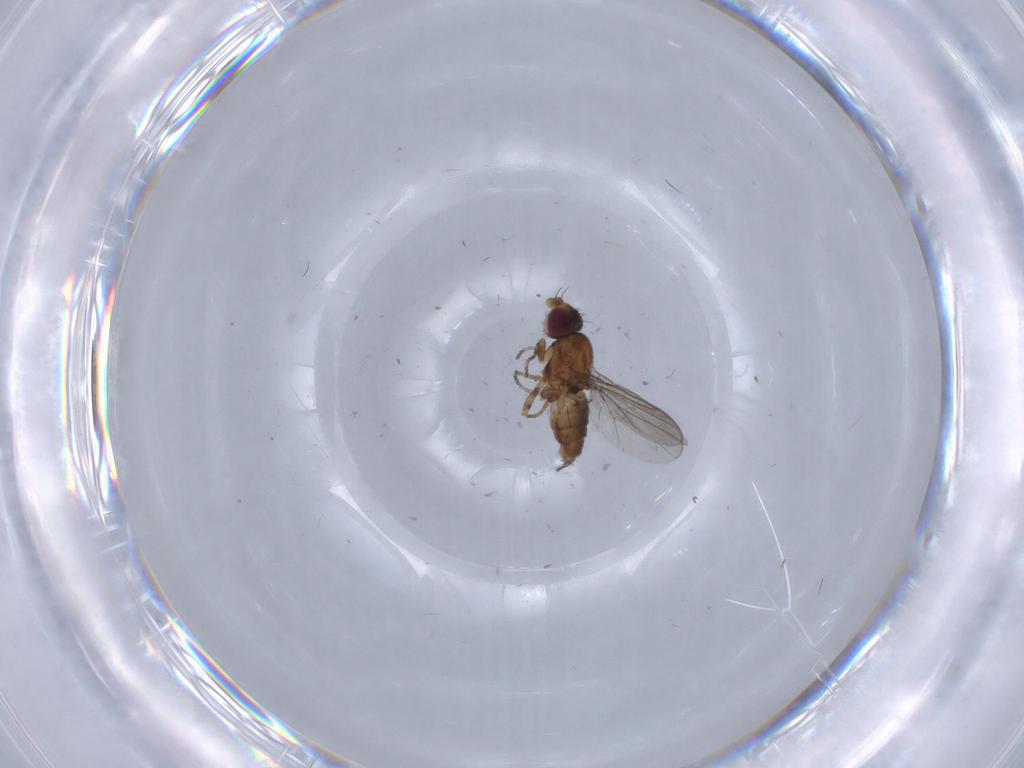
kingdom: Animalia
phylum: Arthropoda
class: Insecta
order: Diptera
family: Chloropidae
